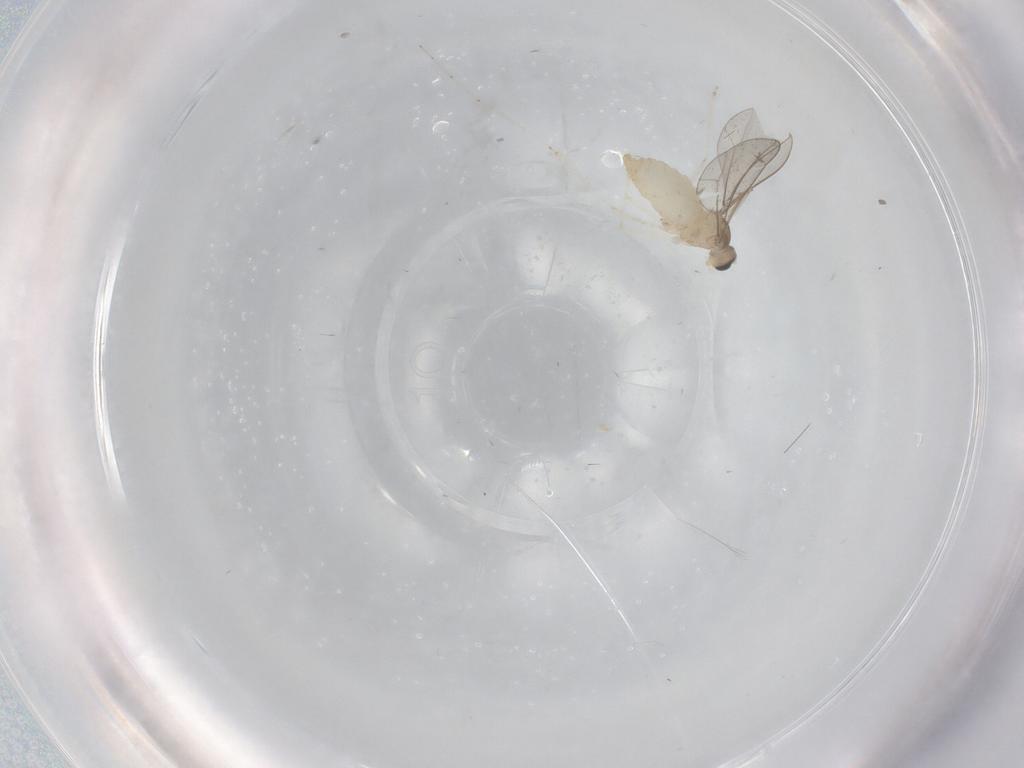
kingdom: Animalia
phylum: Arthropoda
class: Insecta
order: Diptera
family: Cecidomyiidae
